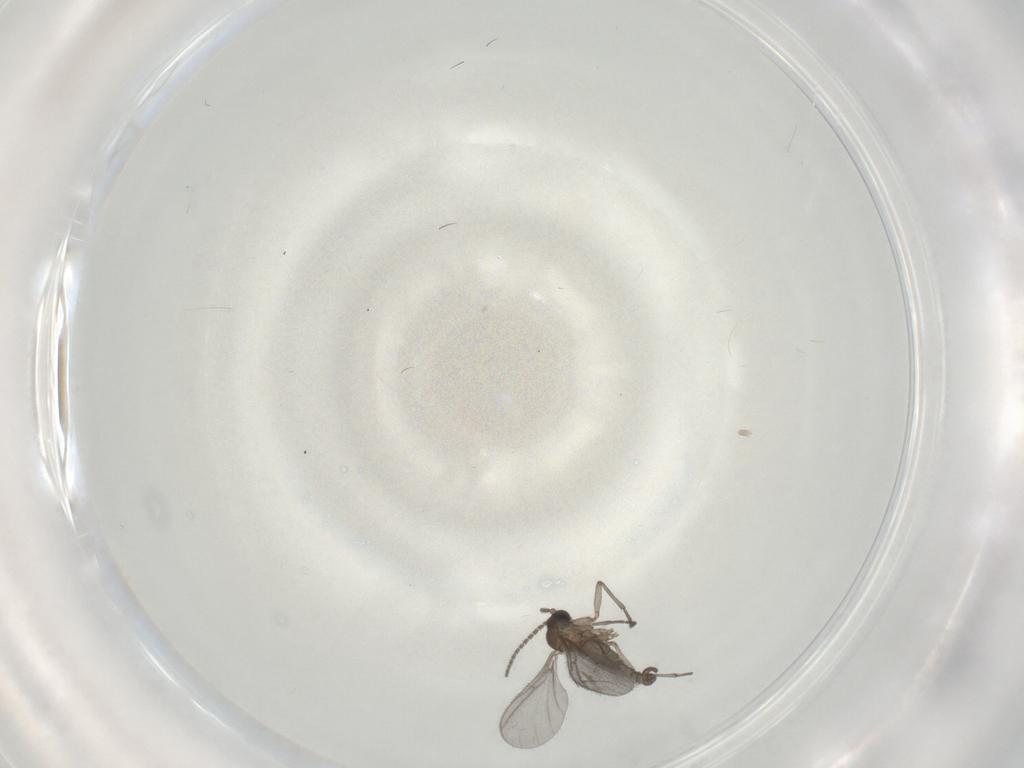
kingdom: Animalia
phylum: Arthropoda
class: Insecta
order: Diptera
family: Sciaridae
